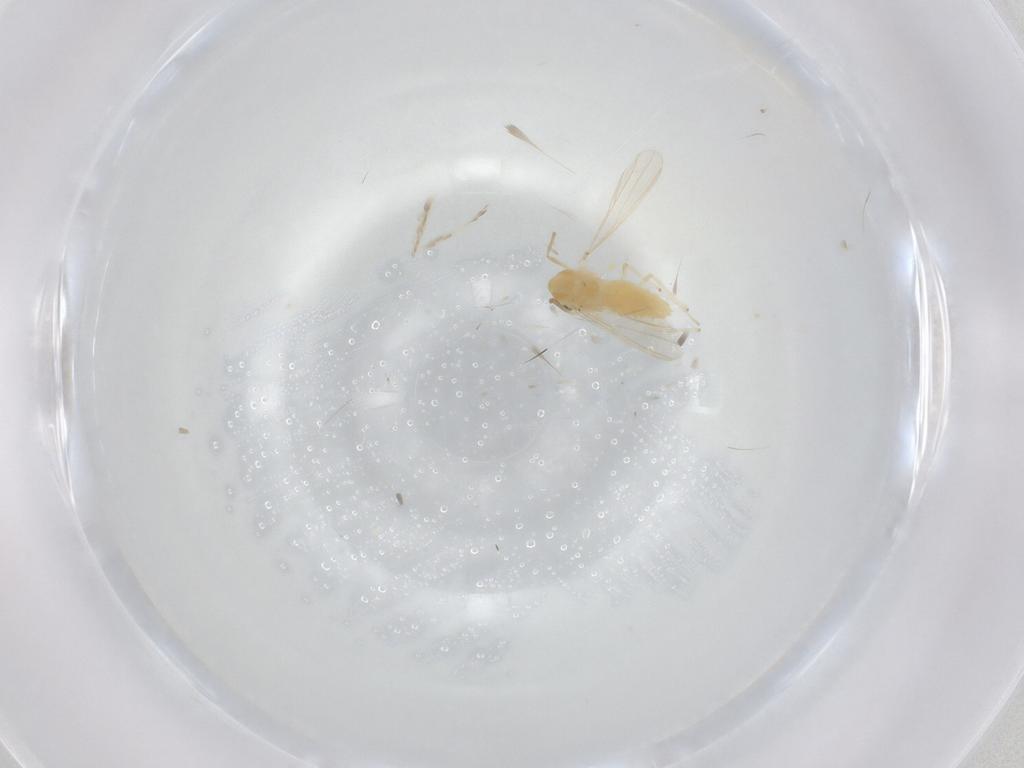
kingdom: Animalia
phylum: Arthropoda
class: Insecta
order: Diptera
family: Chironomidae
